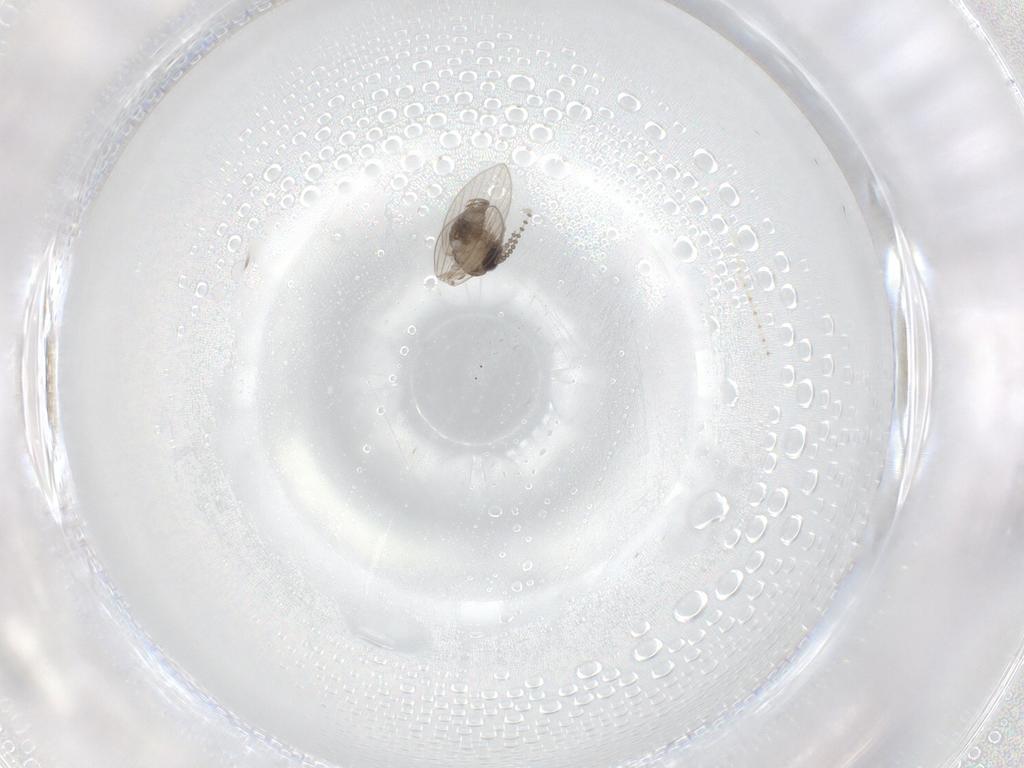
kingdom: Animalia
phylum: Arthropoda
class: Insecta
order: Diptera
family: Psychodidae
